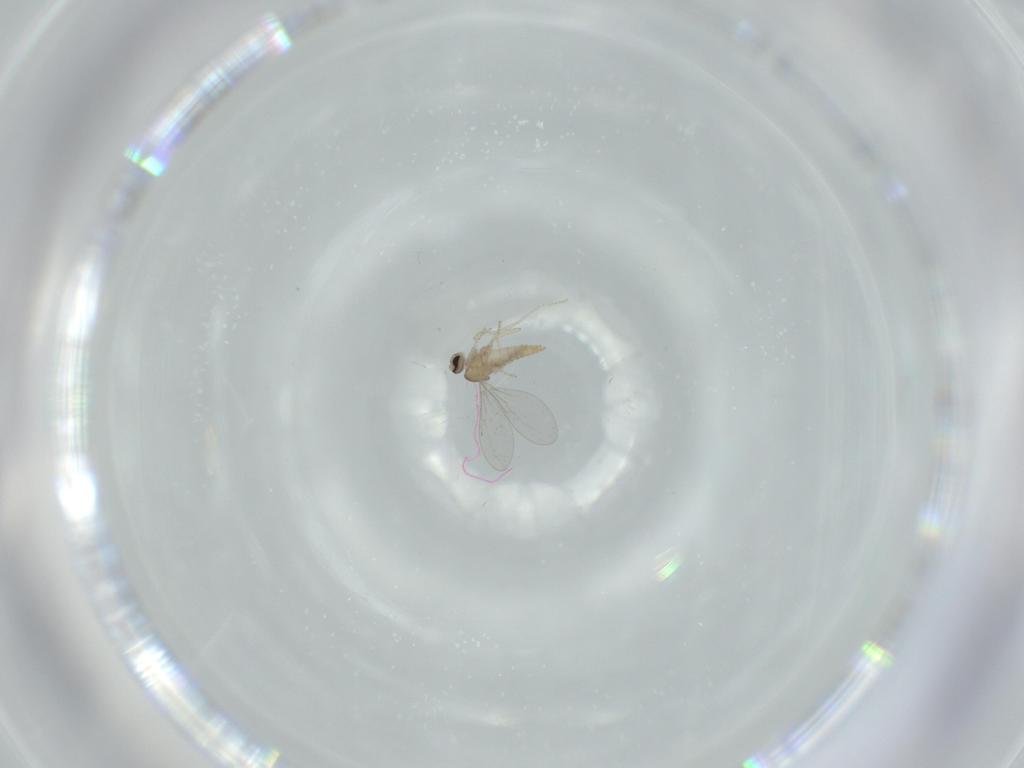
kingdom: Animalia
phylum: Arthropoda
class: Insecta
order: Diptera
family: Cecidomyiidae
